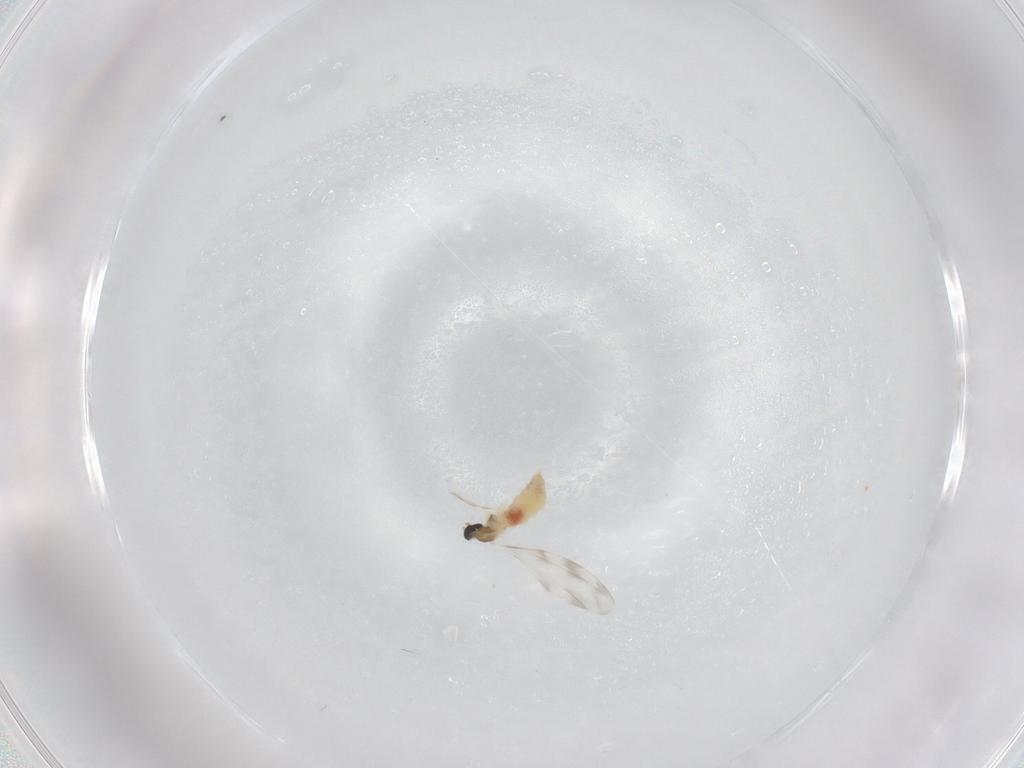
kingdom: Animalia
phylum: Arthropoda
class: Insecta
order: Diptera
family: Cecidomyiidae
